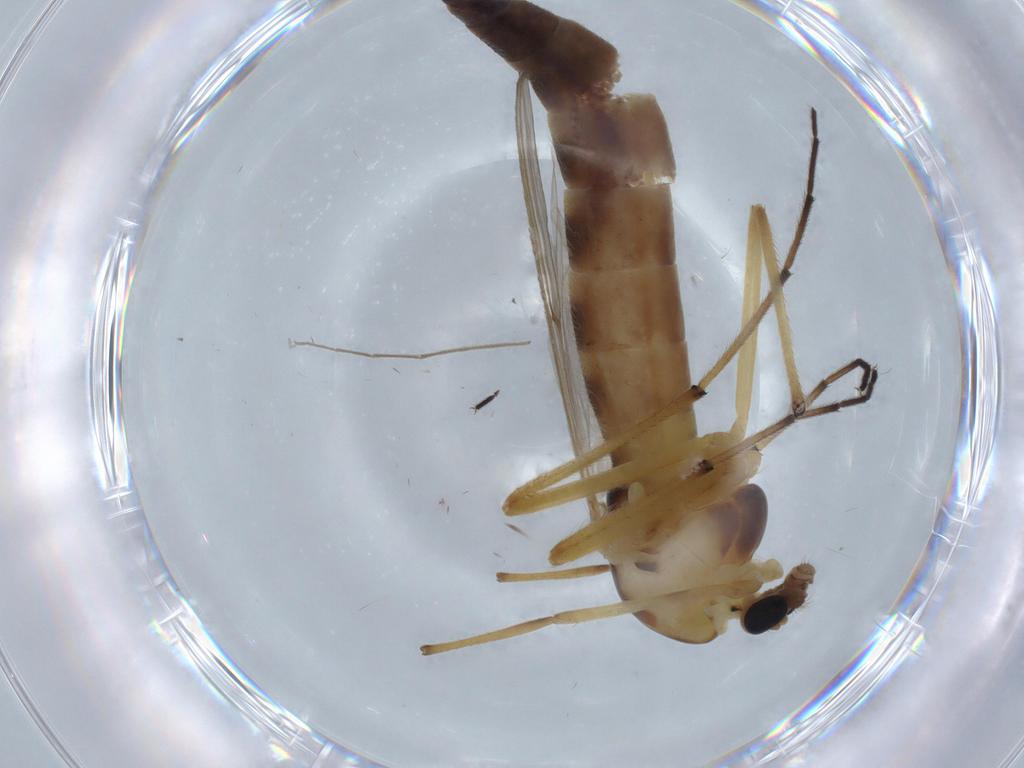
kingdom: Animalia
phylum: Arthropoda
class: Insecta
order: Diptera
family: Chironomidae
